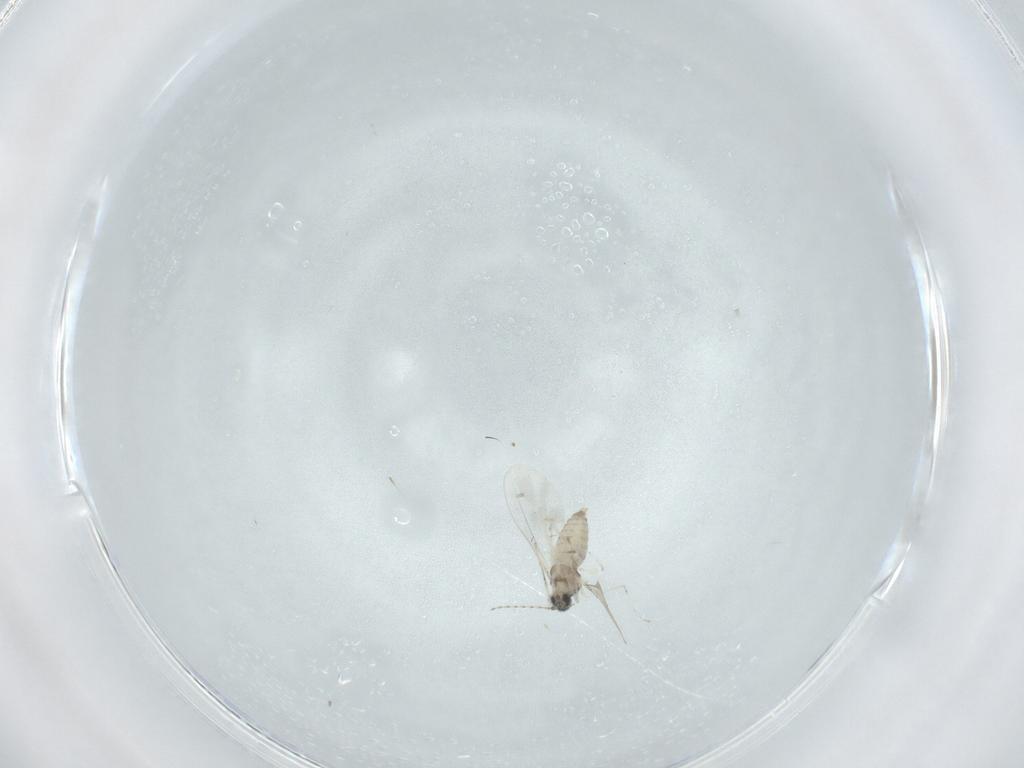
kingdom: Animalia
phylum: Arthropoda
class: Insecta
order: Diptera
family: Cecidomyiidae
